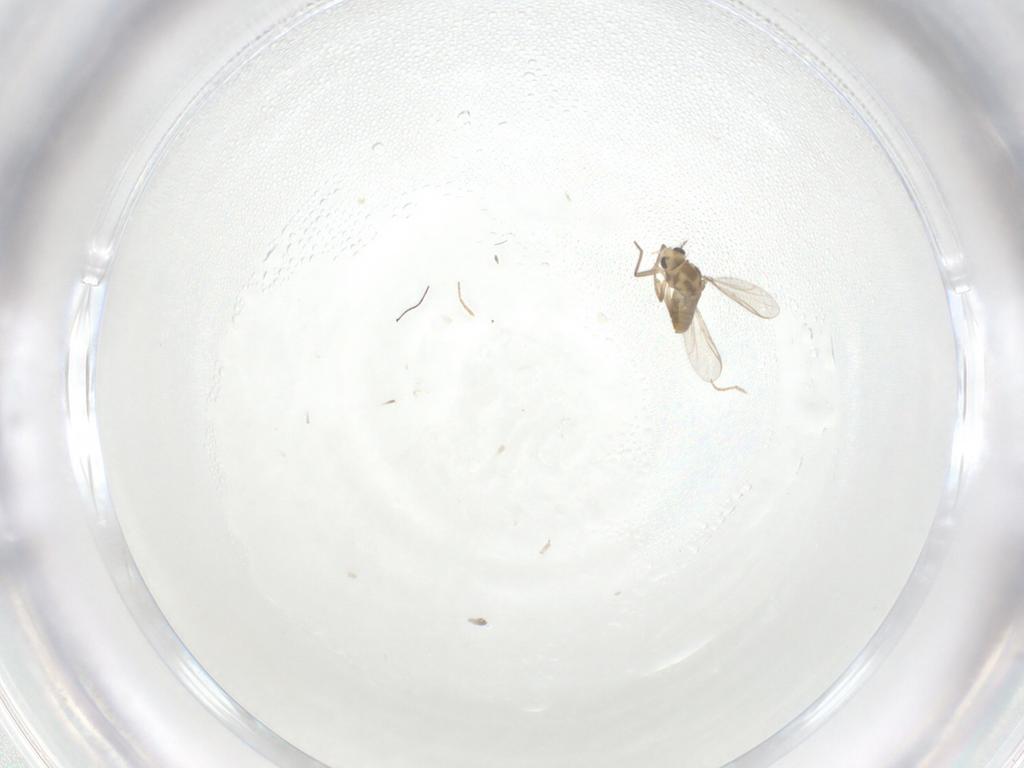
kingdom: Animalia
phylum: Arthropoda
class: Insecta
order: Diptera
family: Chironomidae
